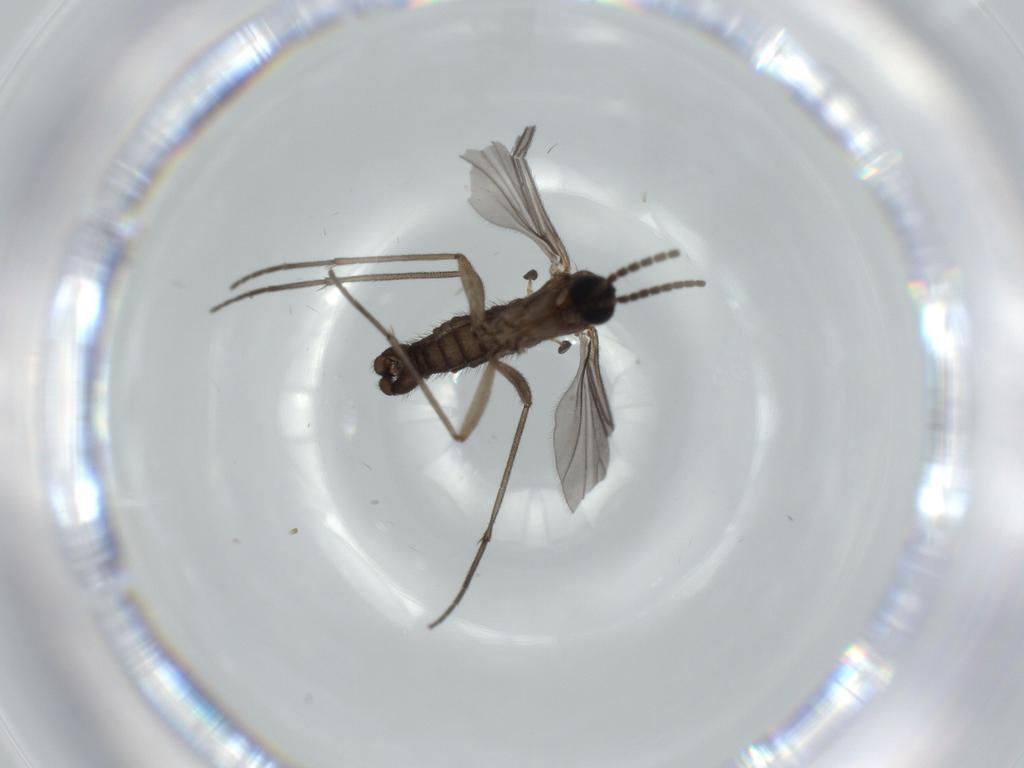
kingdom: Animalia
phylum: Arthropoda
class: Insecta
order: Diptera
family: Sciaridae
